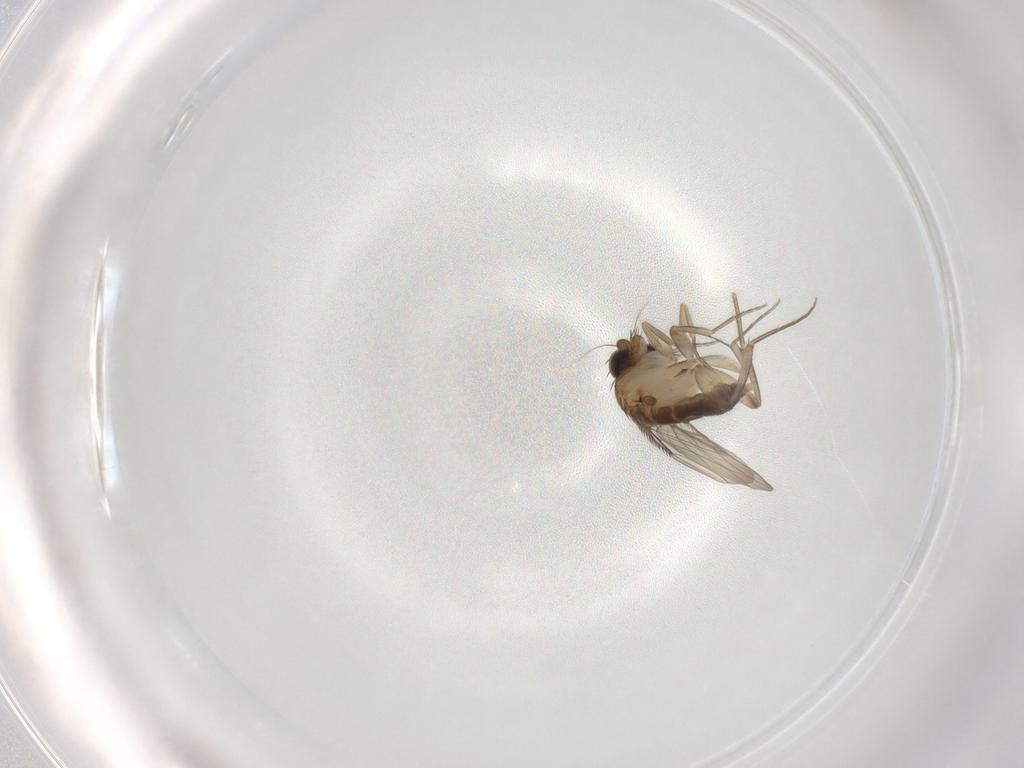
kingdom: Animalia
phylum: Arthropoda
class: Insecta
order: Diptera
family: Phoridae
